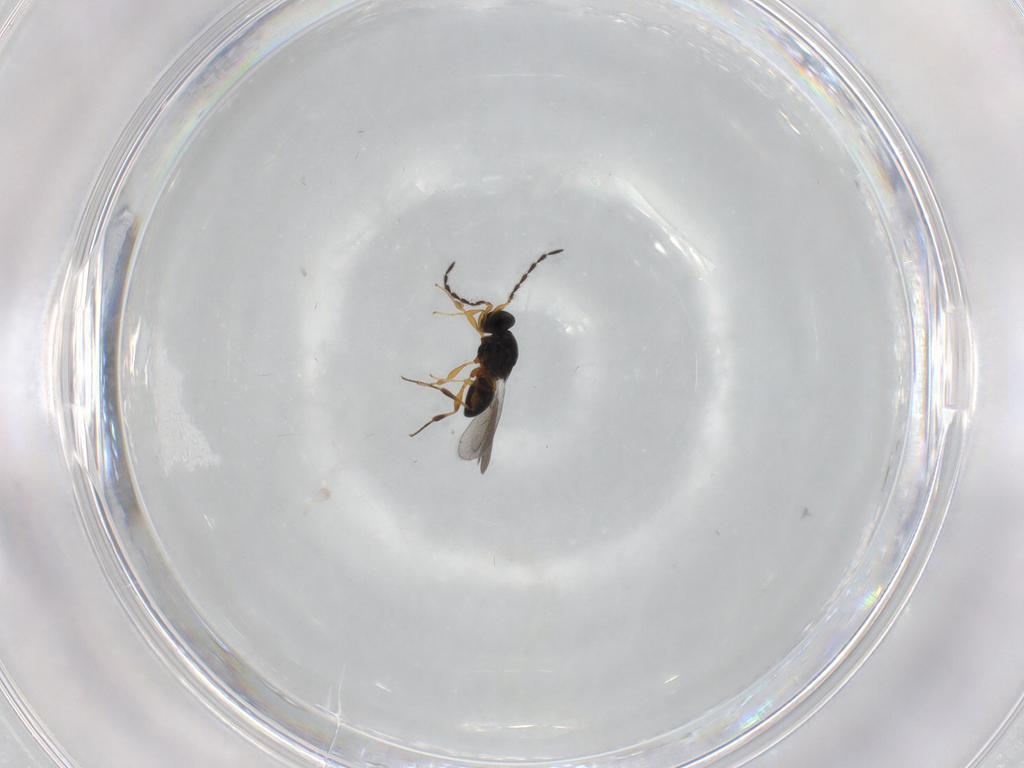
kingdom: Animalia
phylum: Arthropoda
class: Insecta
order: Hymenoptera
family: Platygastridae
